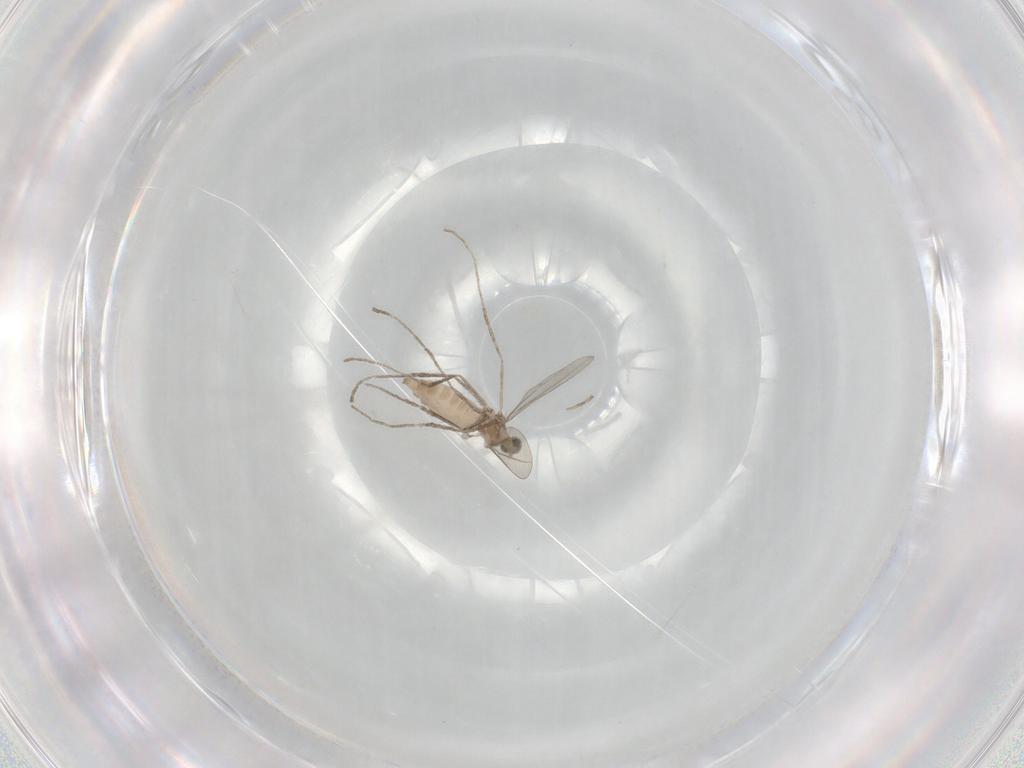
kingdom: Animalia
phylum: Arthropoda
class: Insecta
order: Diptera
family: Cecidomyiidae
